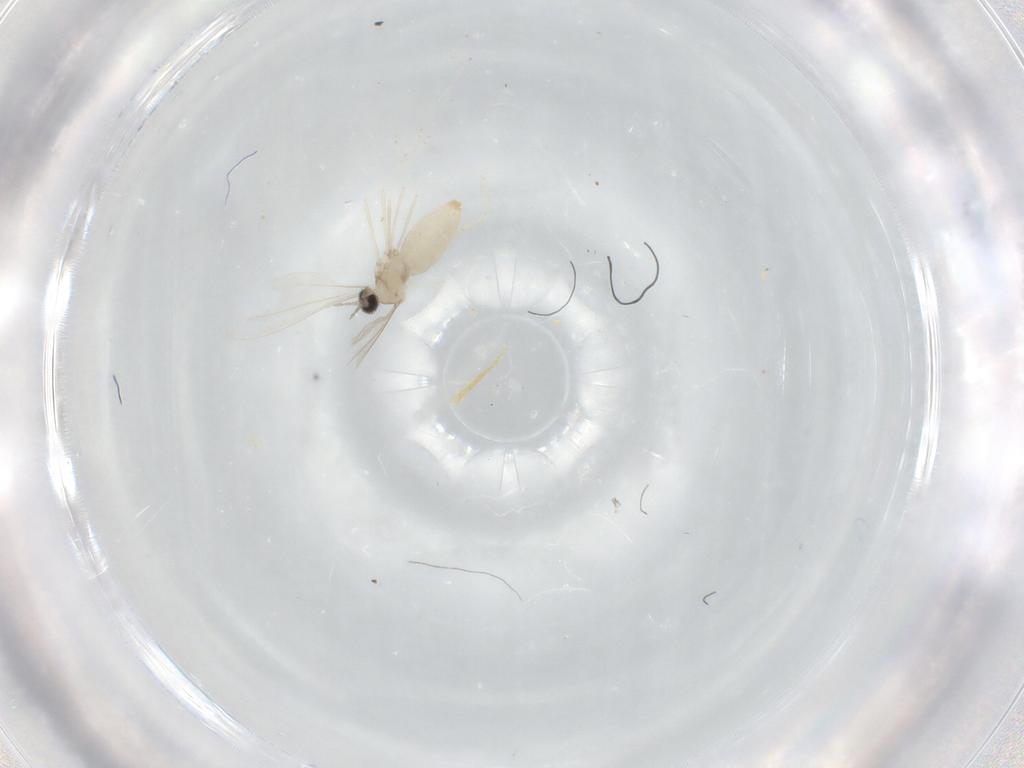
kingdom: Animalia
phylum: Arthropoda
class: Insecta
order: Diptera
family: Cecidomyiidae
